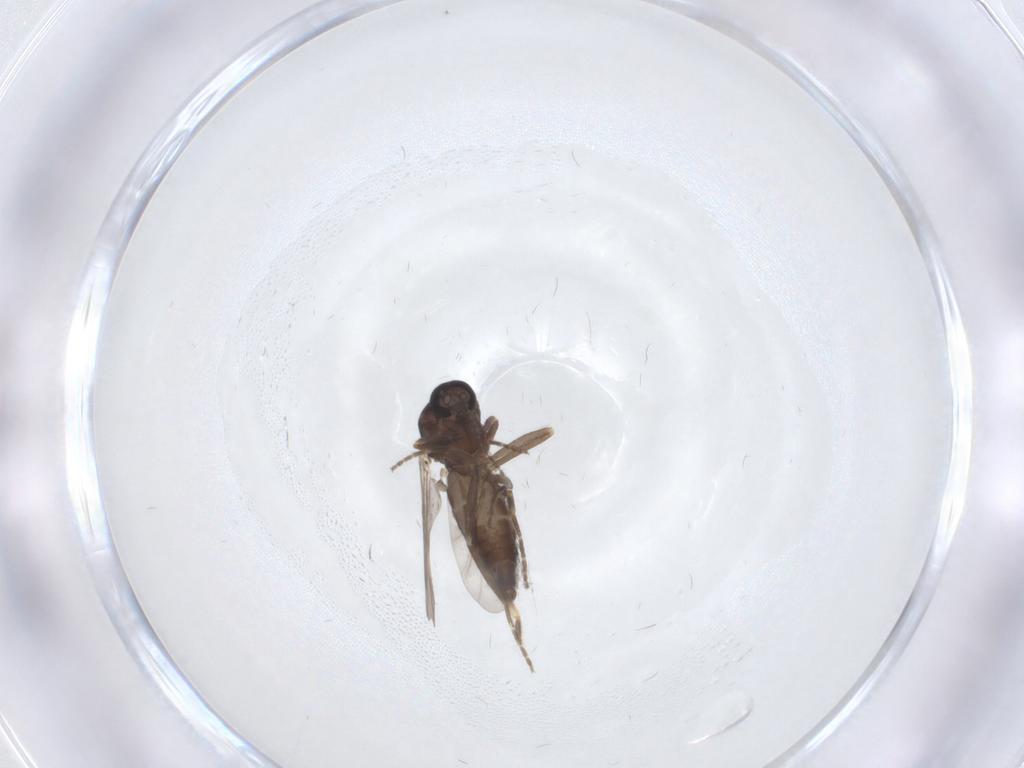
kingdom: Animalia
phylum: Arthropoda
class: Insecta
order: Diptera
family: Ceratopogonidae
